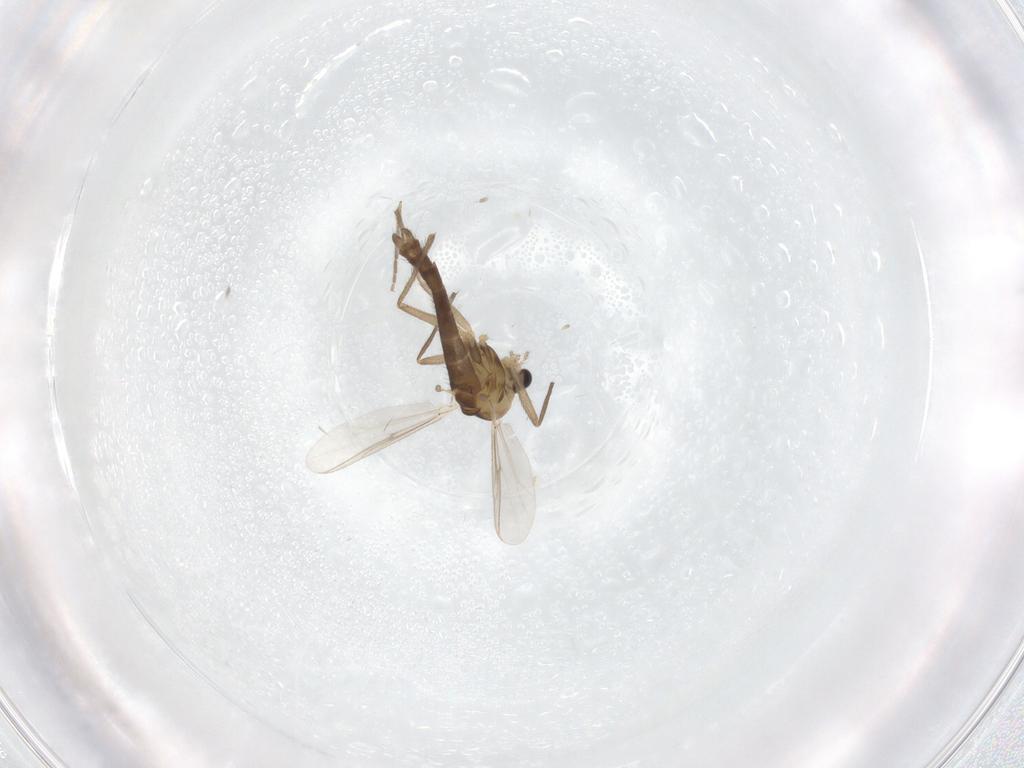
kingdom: Animalia
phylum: Arthropoda
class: Insecta
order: Diptera
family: Chironomidae
